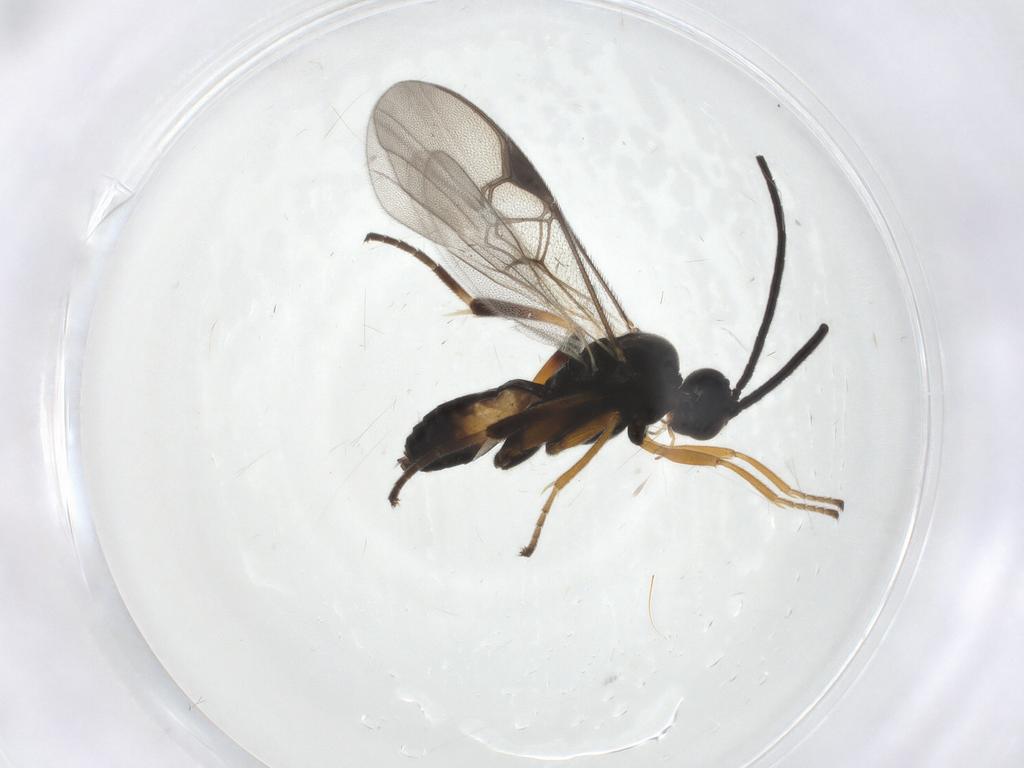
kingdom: Animalia
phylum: Arthropoda
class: Insecta
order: Hymenoptera
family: Braconidae
